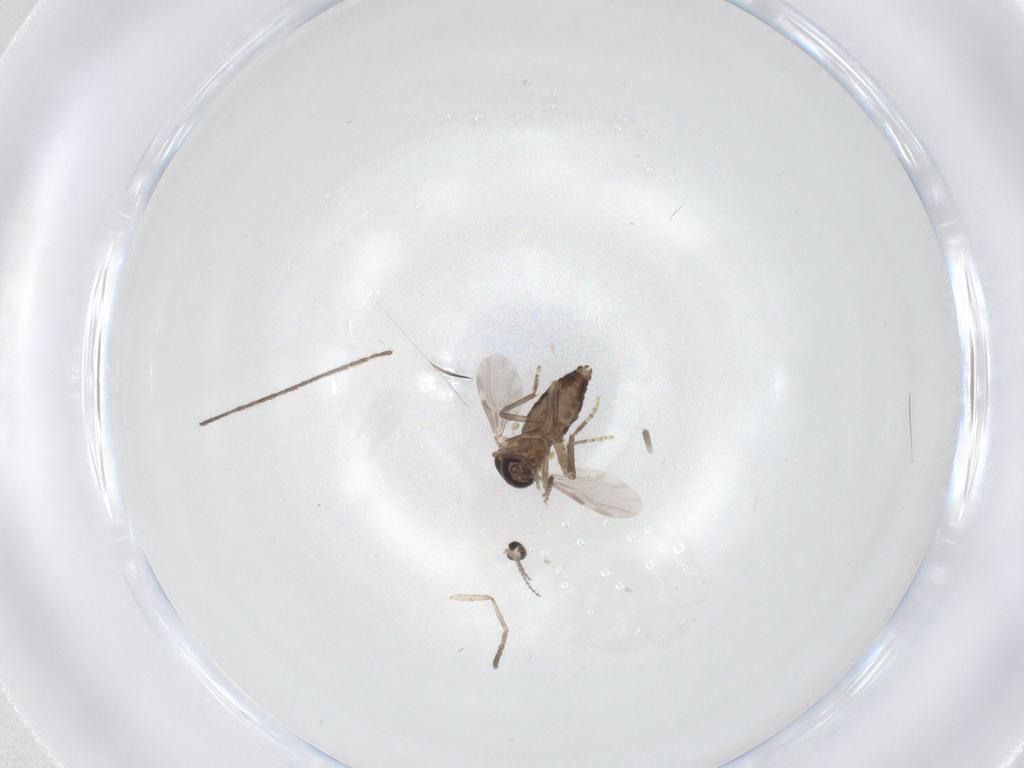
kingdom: Animalia
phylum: Arthropoda
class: Insecta
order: Diptera
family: Ceratopogonidae
